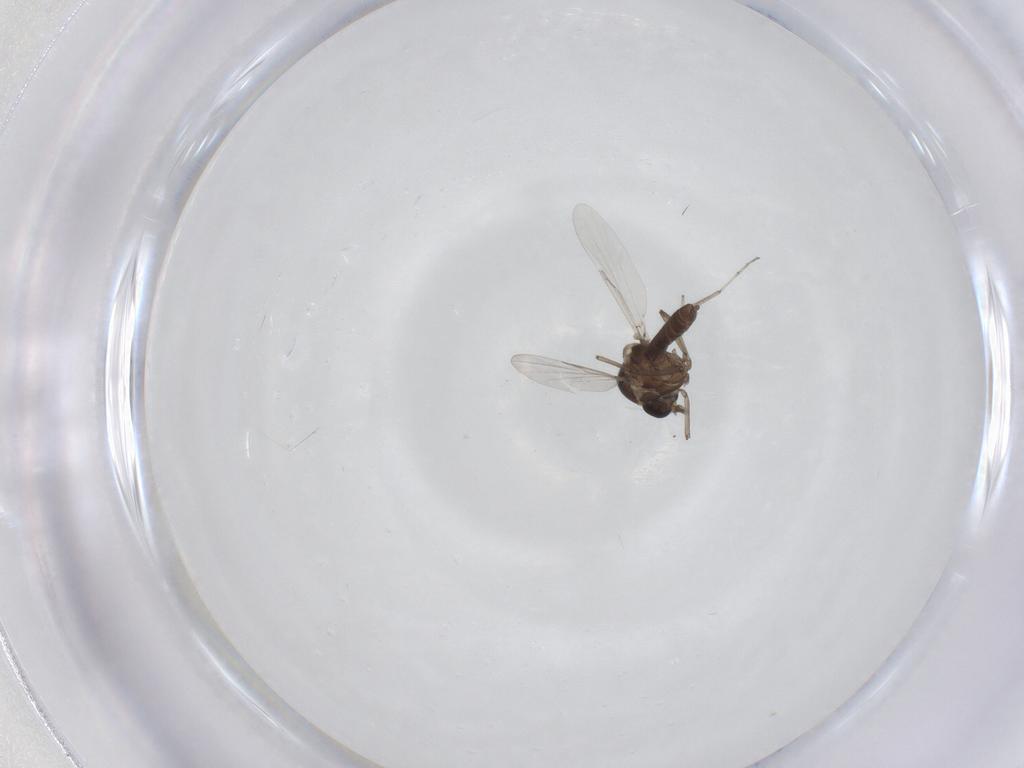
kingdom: Animalia
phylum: Arthropoda
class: Insecta
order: Diptera
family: Ceratopogonidae
